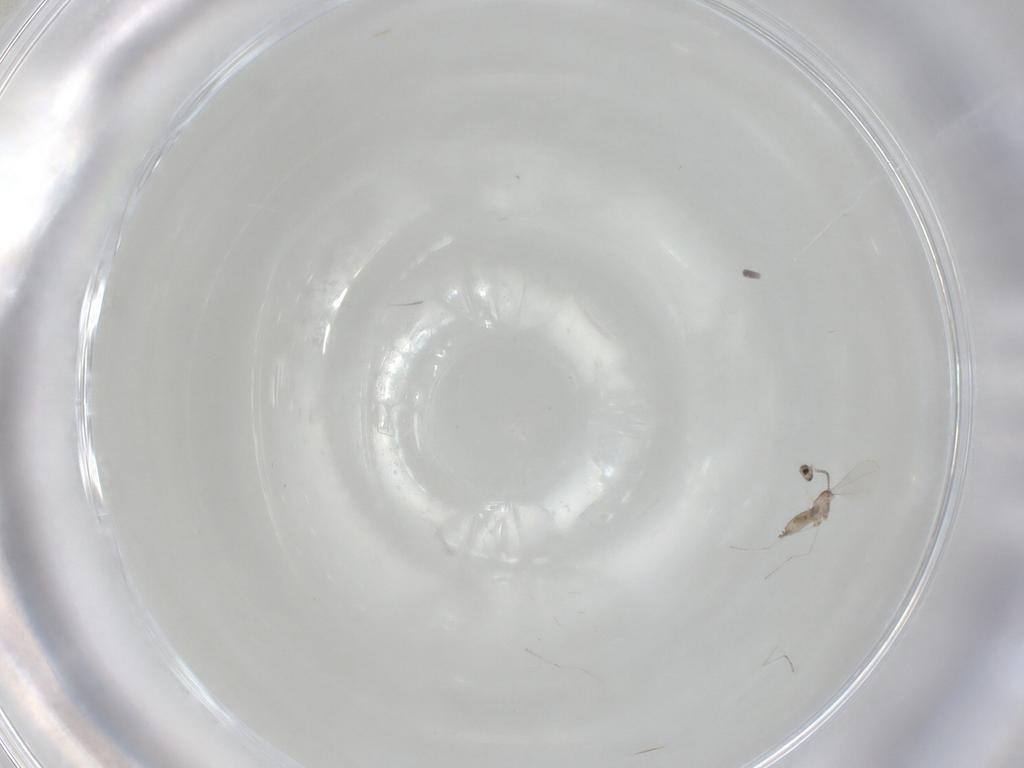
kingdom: Animalia
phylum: Arthropoda
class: Insecta
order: Diptera
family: Cecidomyiidae
